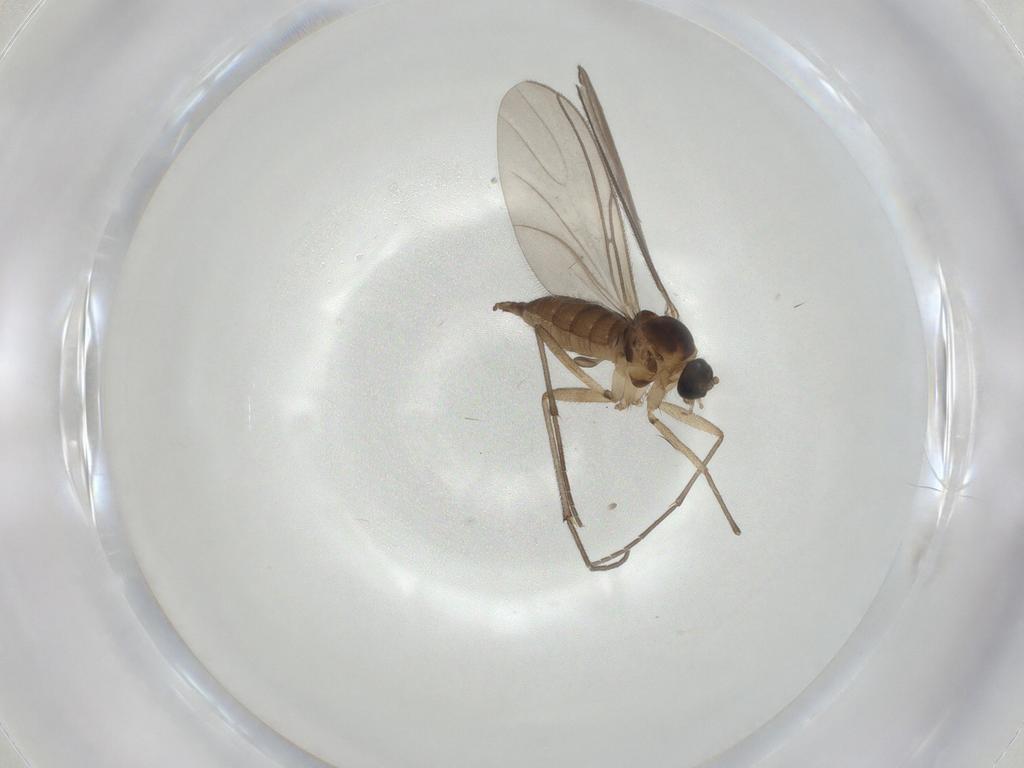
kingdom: Animalia
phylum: Arthropoda
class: Insecta
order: Diptera
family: Sciaridae
